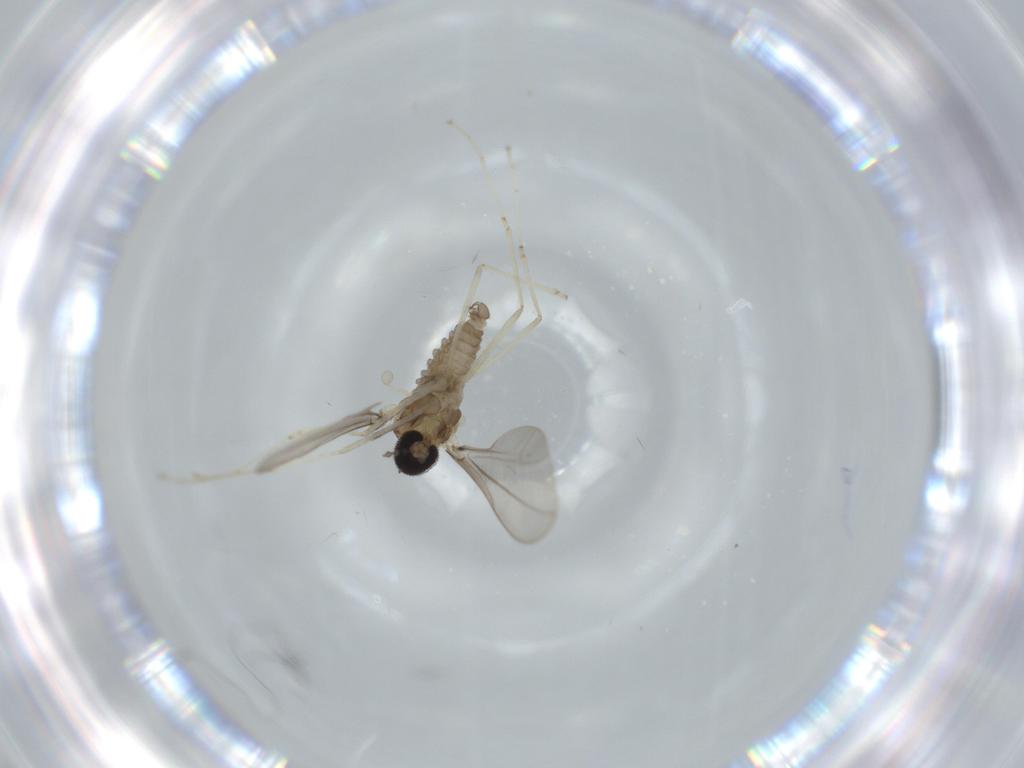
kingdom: Animalia
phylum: Arthropoda
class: Insecta
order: Diptera
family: Cecidomyiidae
